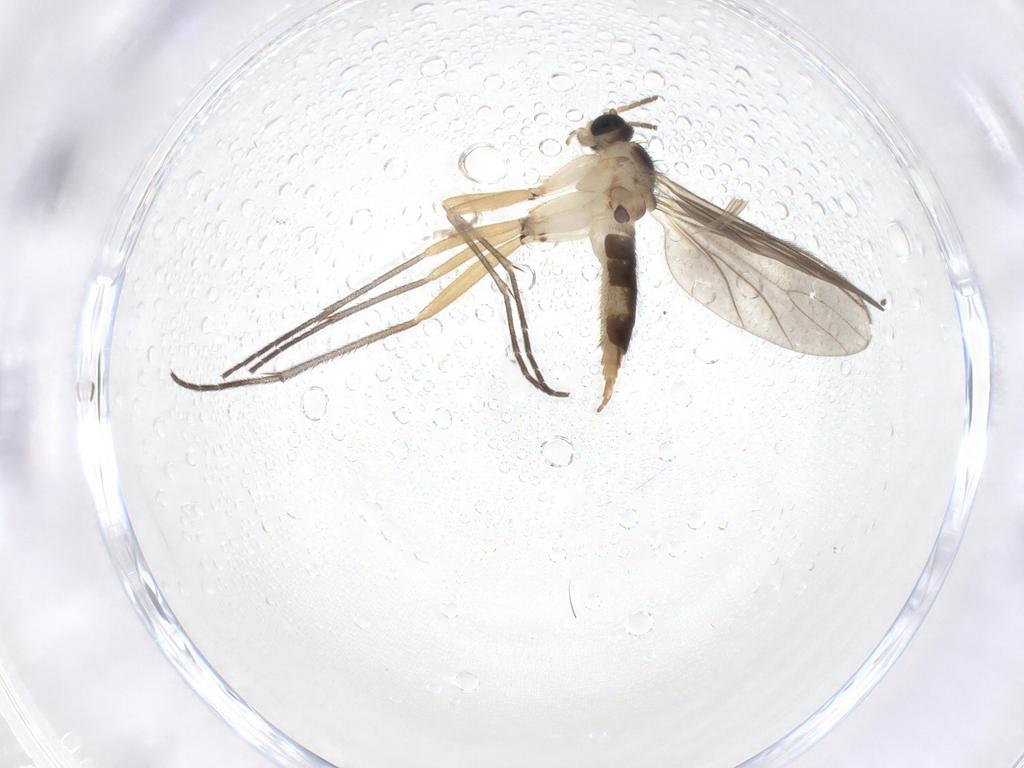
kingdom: Animalia
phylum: Arthropoda
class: Insecta
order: Diptera
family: Sciaridae
